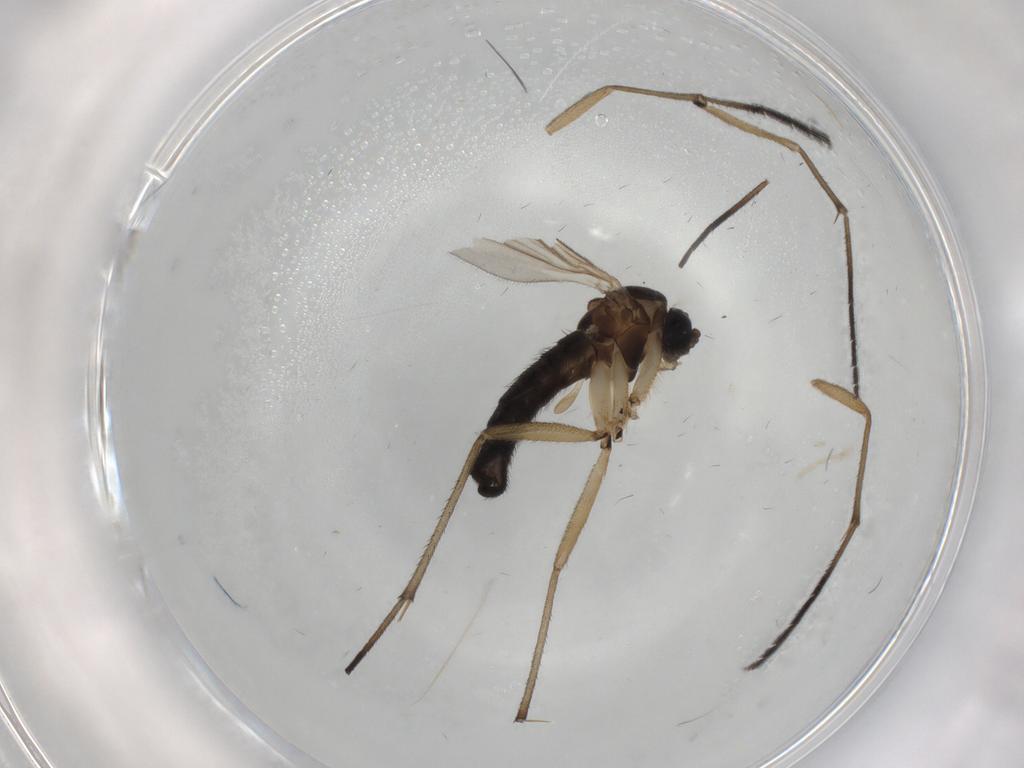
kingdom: Animalia
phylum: Arthropoda
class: Insecta
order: Diptera
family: Sciaridae
